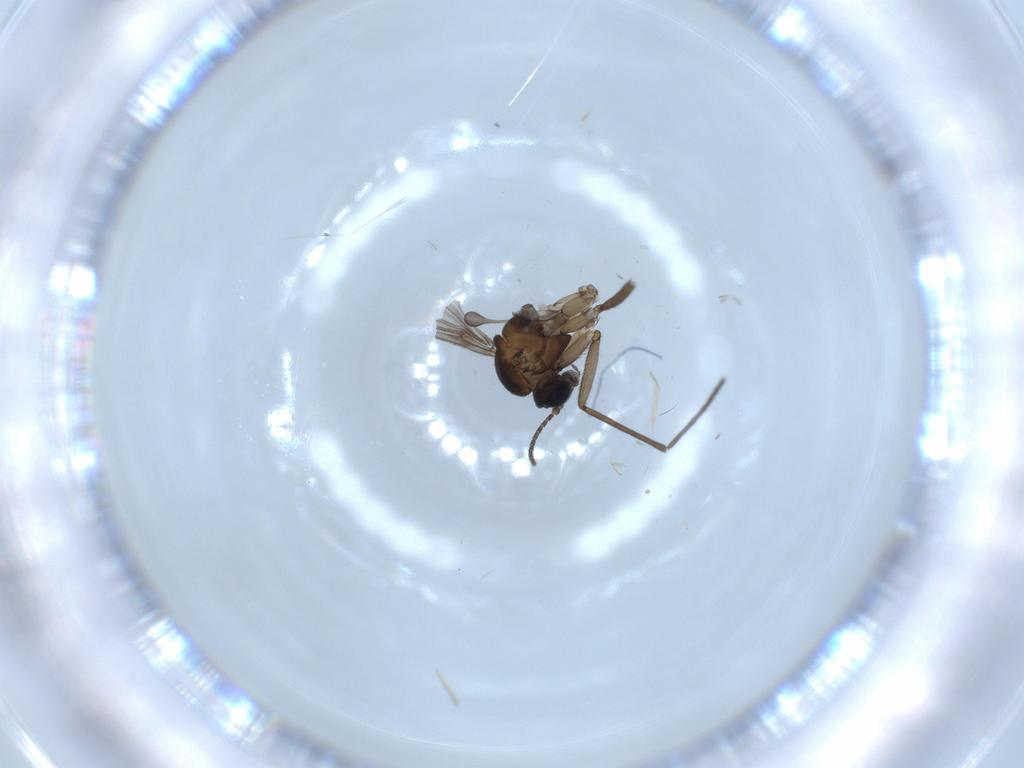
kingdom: Animalia
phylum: Arthropoda
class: Insecta
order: Diptera
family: Sciaridae
